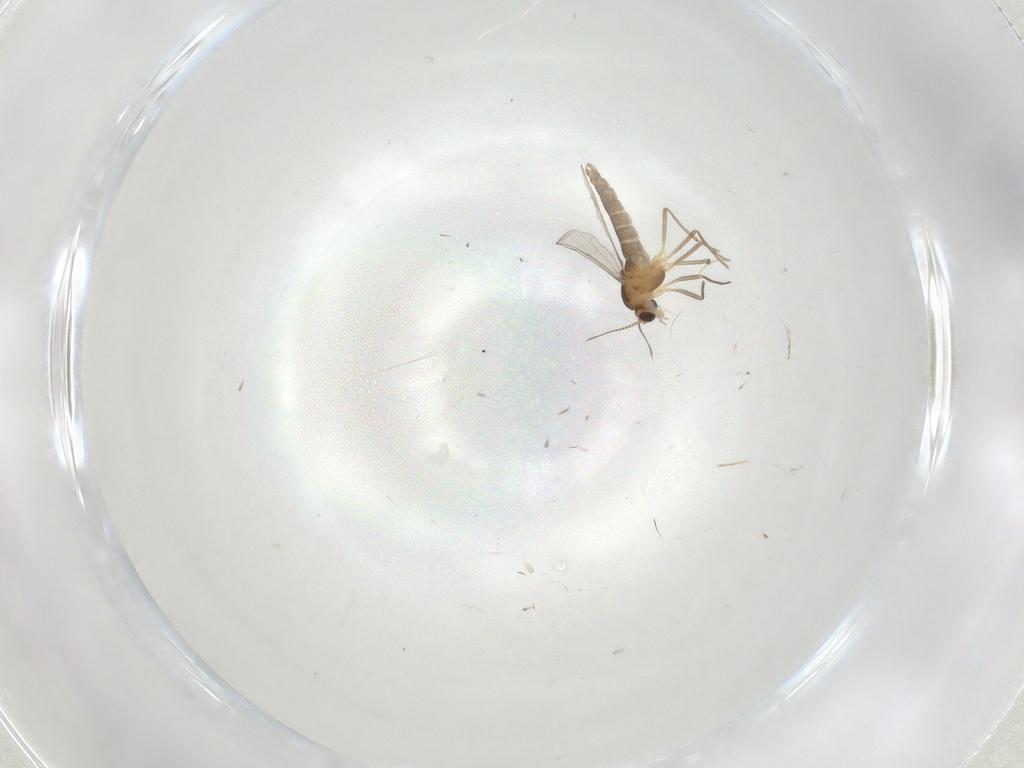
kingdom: Animalia
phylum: Arthropoda
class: Insecta
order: Diptera
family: Chironomidae
